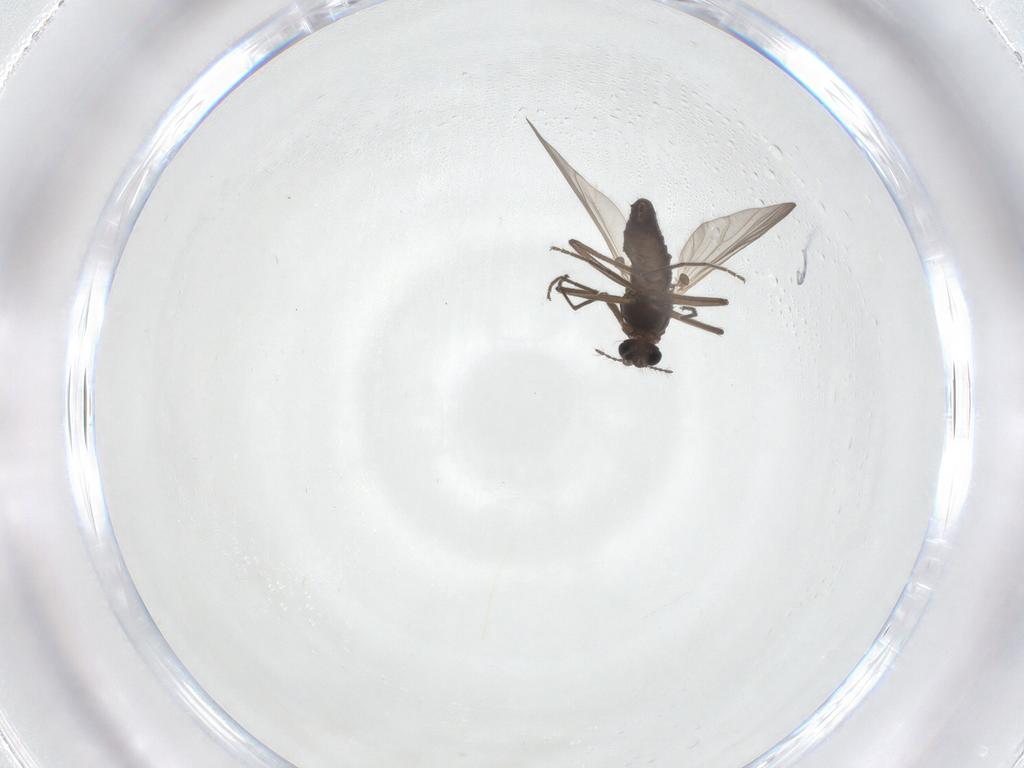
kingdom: Animalia
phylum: Arthropoda
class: Insecta
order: Diptera
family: Chironomidae
